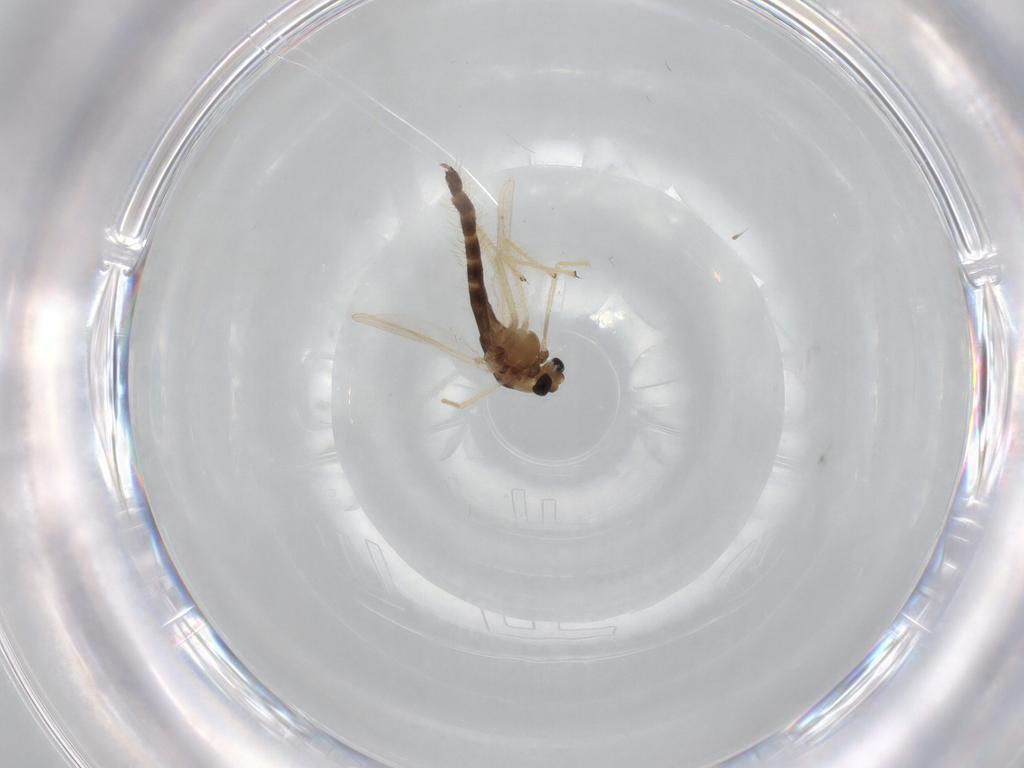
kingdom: Animalia
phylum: Arthropoda
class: Insecta
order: Diptera
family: Chironomidae
